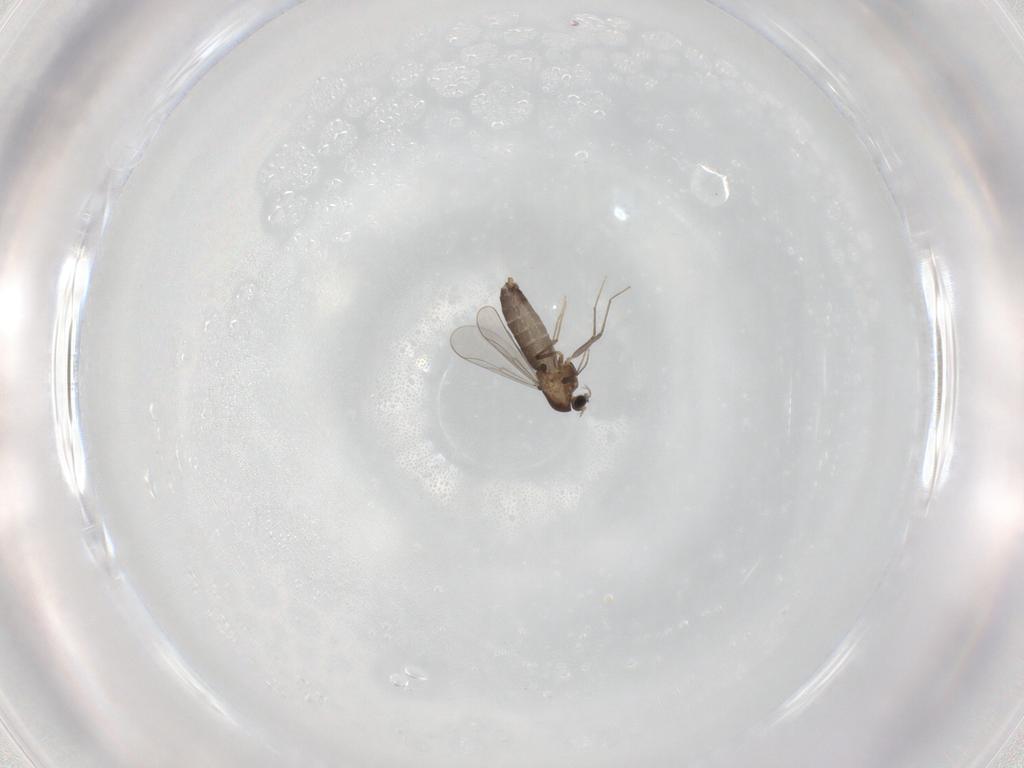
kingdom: Animalia
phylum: Arthropoda
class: Insecta
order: Diptera
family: Chironomidae
